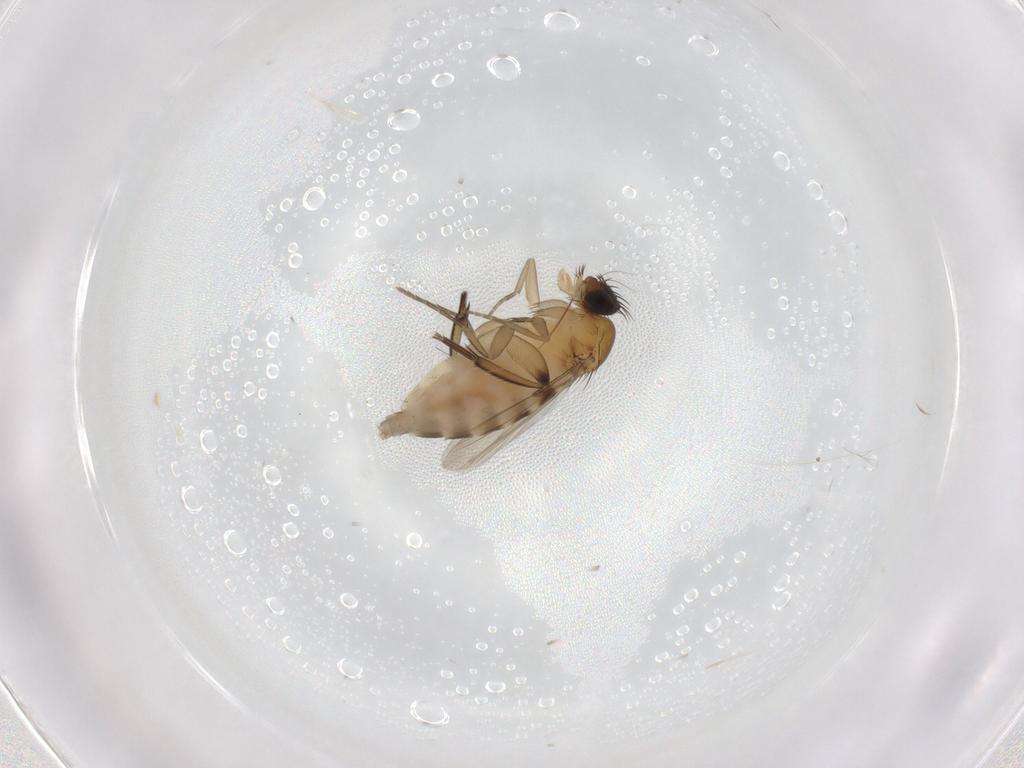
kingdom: Animalia
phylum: Arthropoda
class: Insecta
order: Diptera
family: Phoridae
